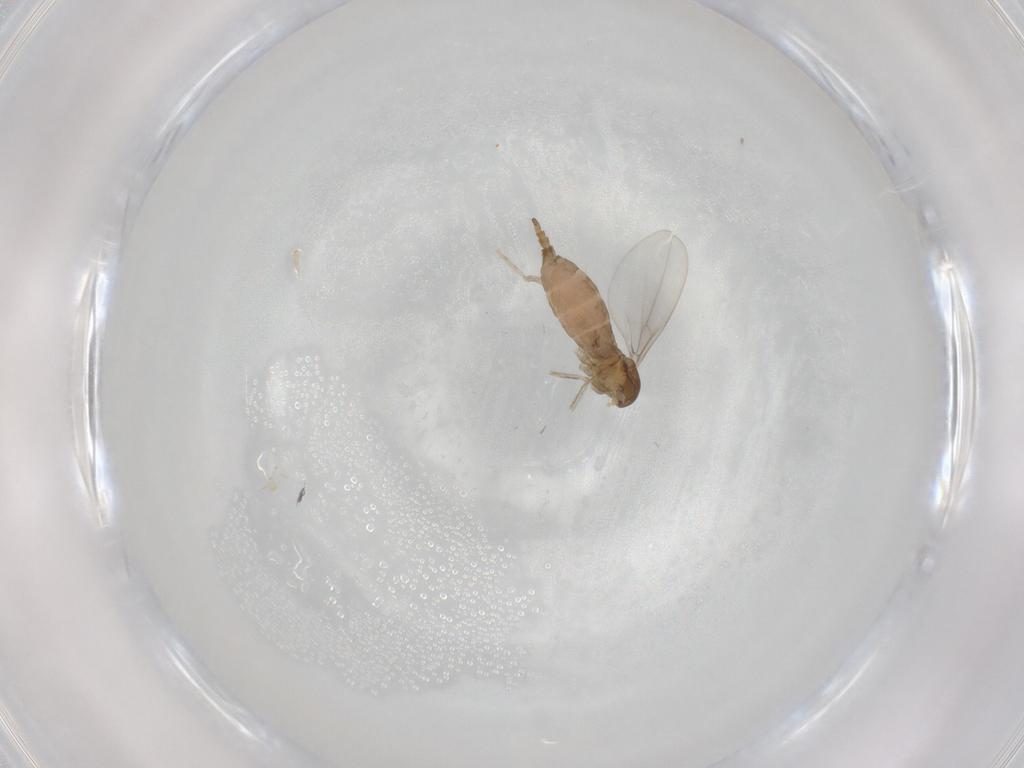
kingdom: Animalia
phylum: Arthropoda
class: Insecta
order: Diptera
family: Cecidomyiidae
